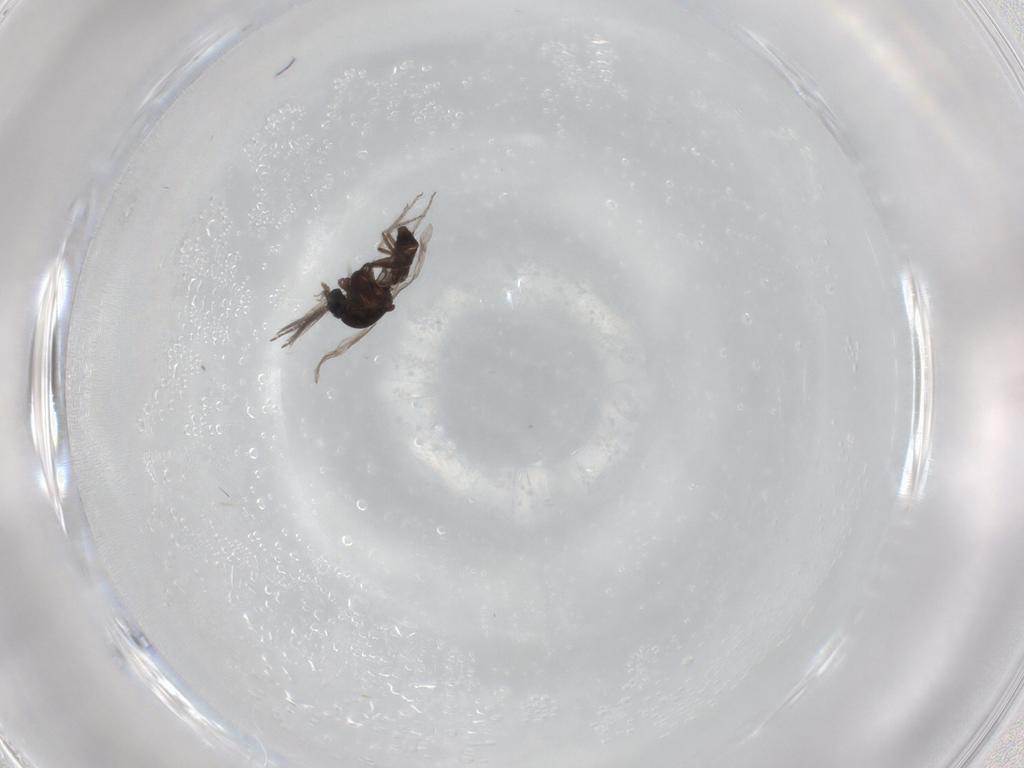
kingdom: Animalia
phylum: Arthropoda
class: Insecta
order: Diptera
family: Ceratopogonidae
